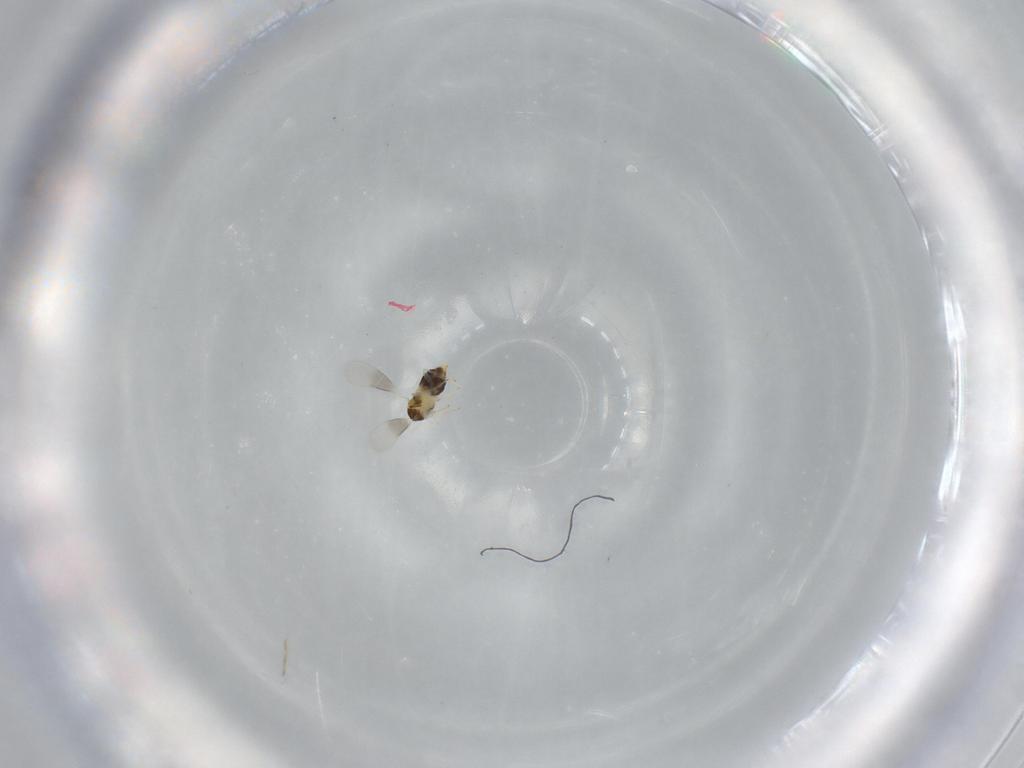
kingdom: Animalia
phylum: Arthropoda
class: Insecta
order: Hymenoptera
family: Aphelinidae
